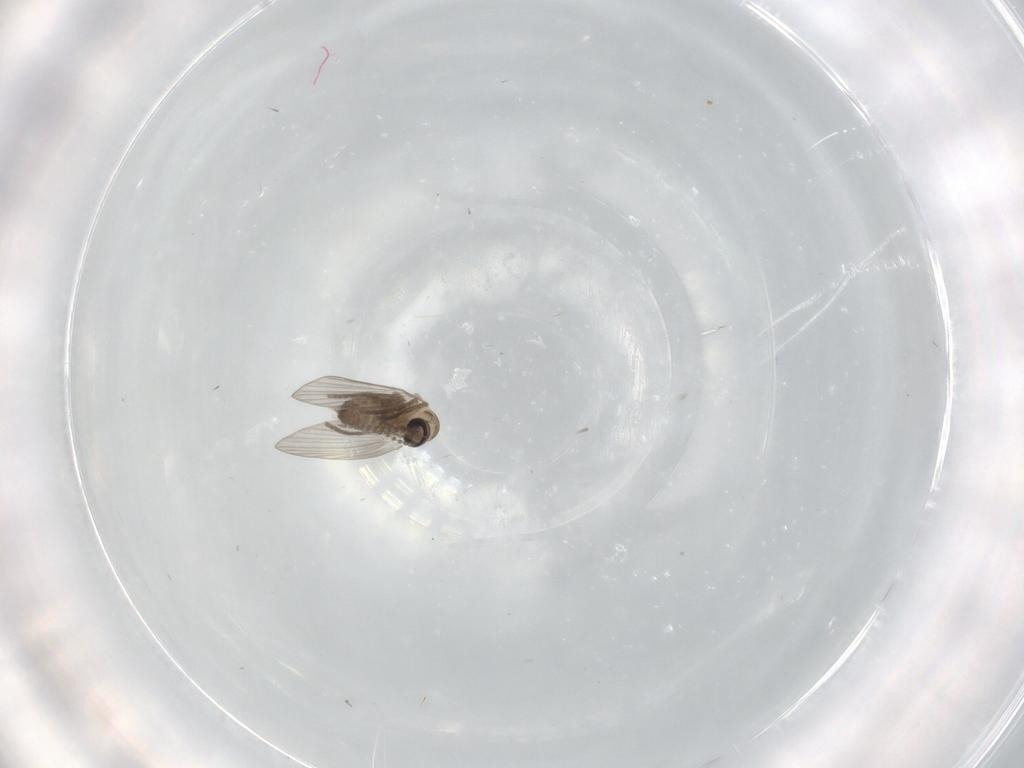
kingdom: Animalia
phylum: Arthropoda
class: Insecta
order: Diptera
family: Psychodidae
